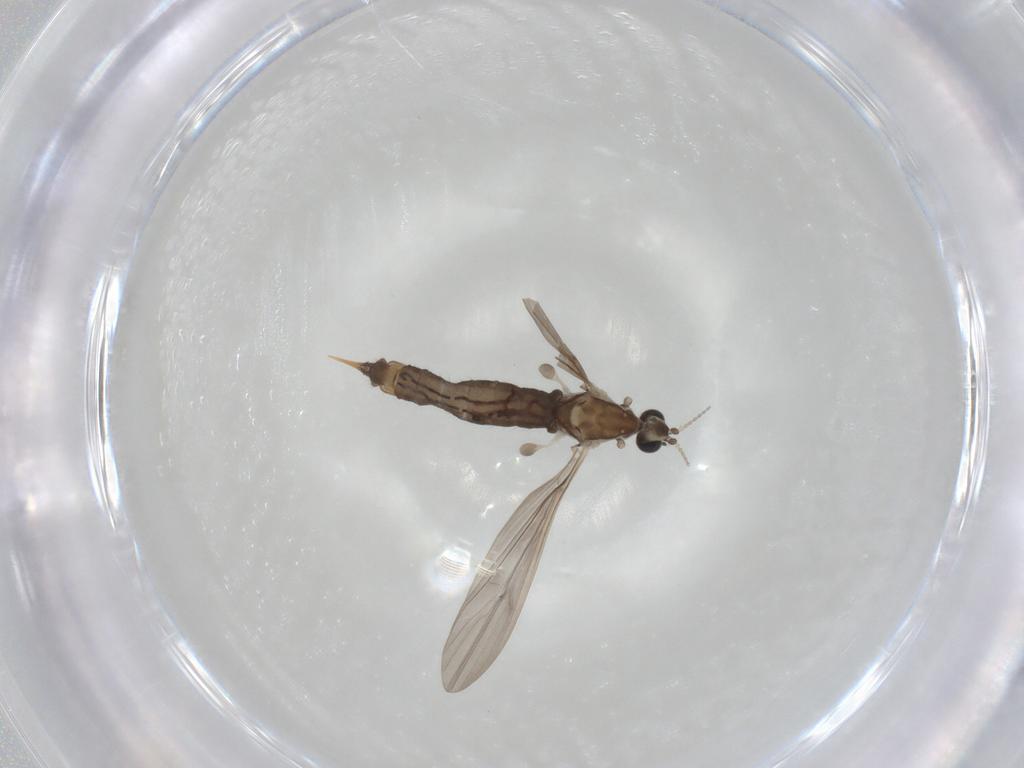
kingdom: Animalia
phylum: Arthropoda
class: Insecta
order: Diptera
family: Limoniidae
